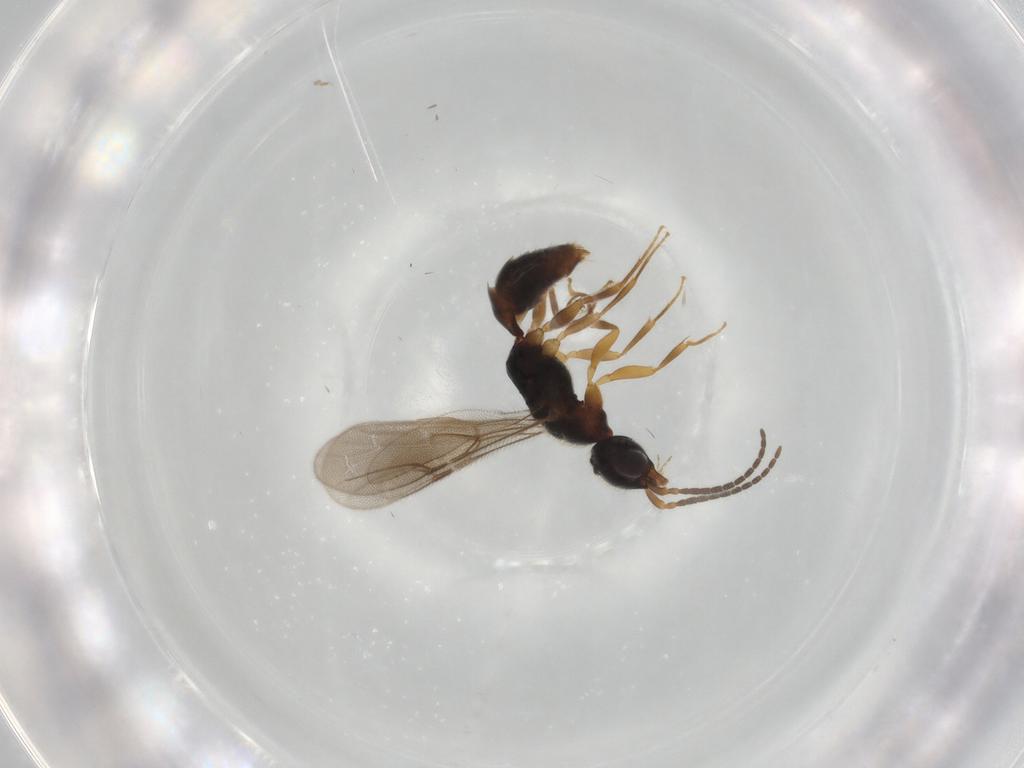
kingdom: Animalia
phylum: Arthropoda
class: Insecta
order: Hymenoptera
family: Bethylidae
